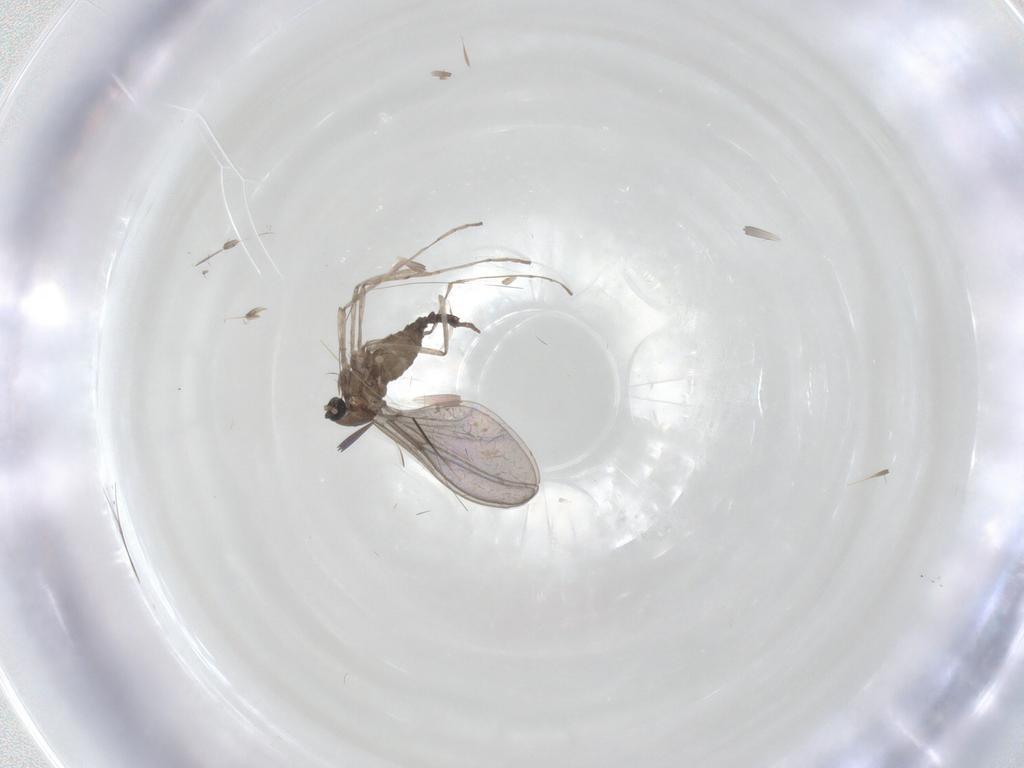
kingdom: Animalia
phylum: Arthropoda
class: Insecta
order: Diptera
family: Cecidomyiidae
